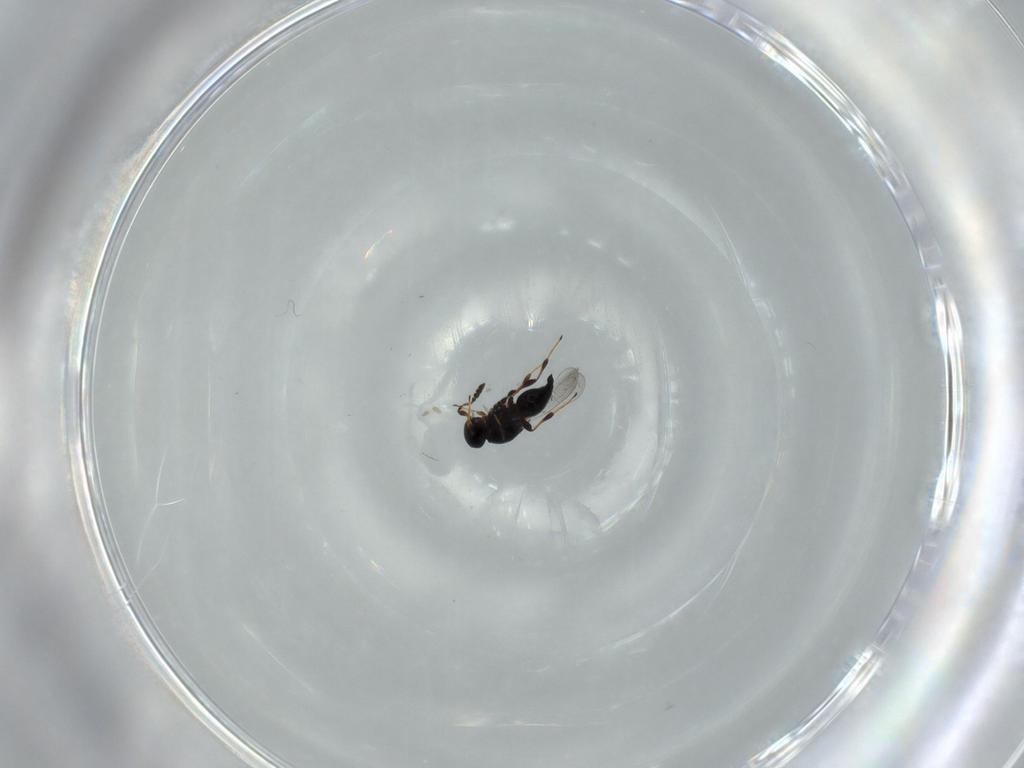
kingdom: Animalia
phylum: Arthropoda
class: Insecta
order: Hymenoptera
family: Platygastridae
